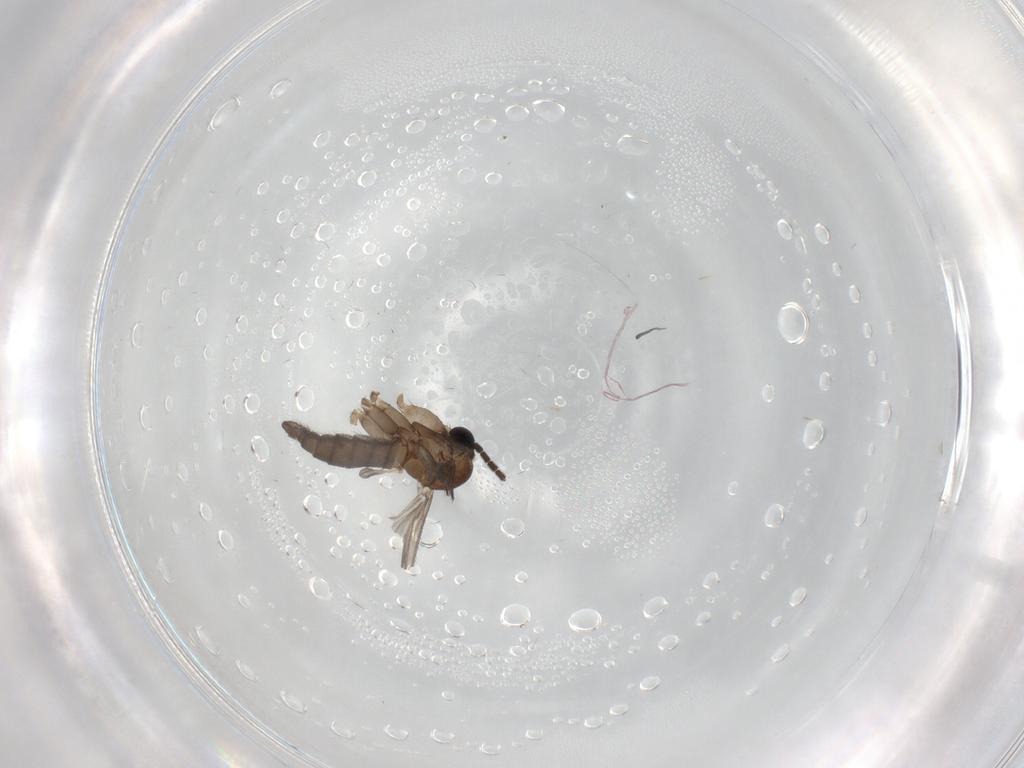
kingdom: Animalia
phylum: Arthropoda
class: Insecta
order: Diptera
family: Sciaridae
